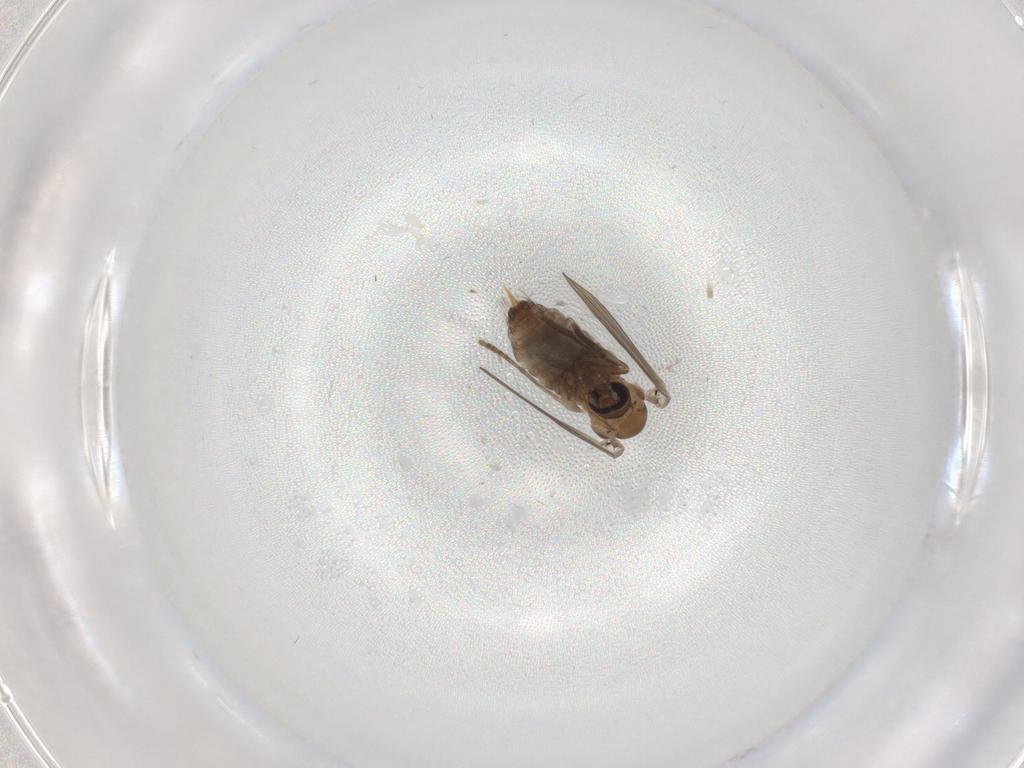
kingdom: Animalia
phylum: Arthropoda
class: Insecta
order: Diptera
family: Psychodidae
